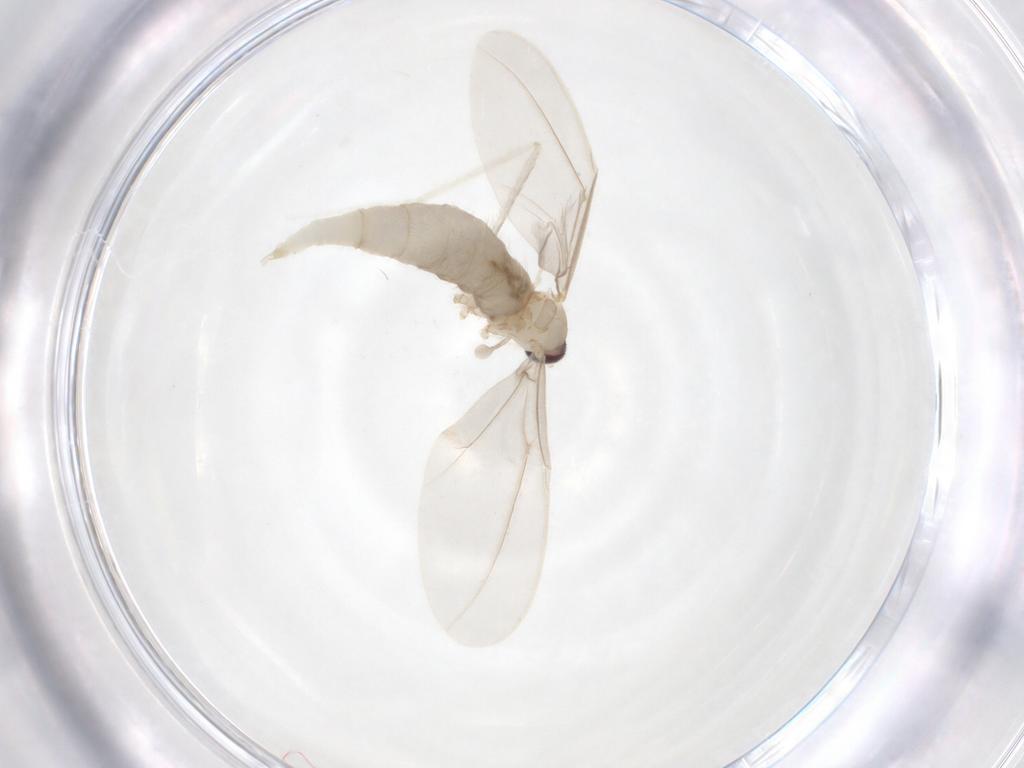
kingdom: Animalia
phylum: Arthropoda
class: Insecta
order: Diptera
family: Cecidomyiidae
